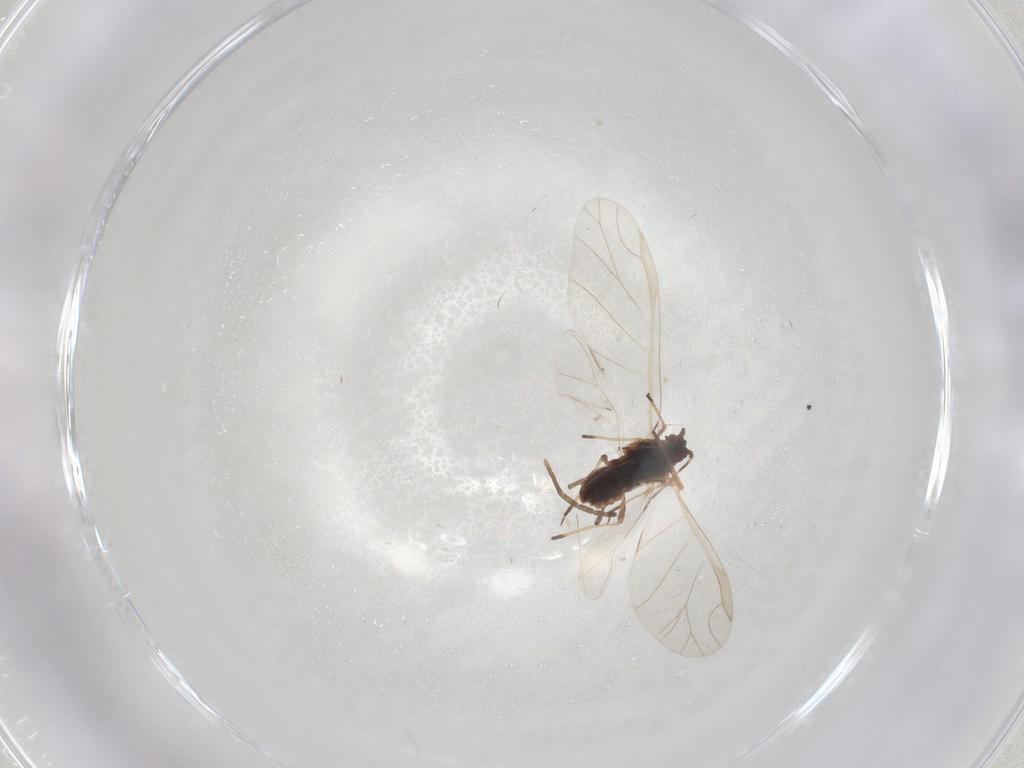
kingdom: Animalia
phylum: Arthropoda
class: Insecta
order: Hemiptera
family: Aphididae
